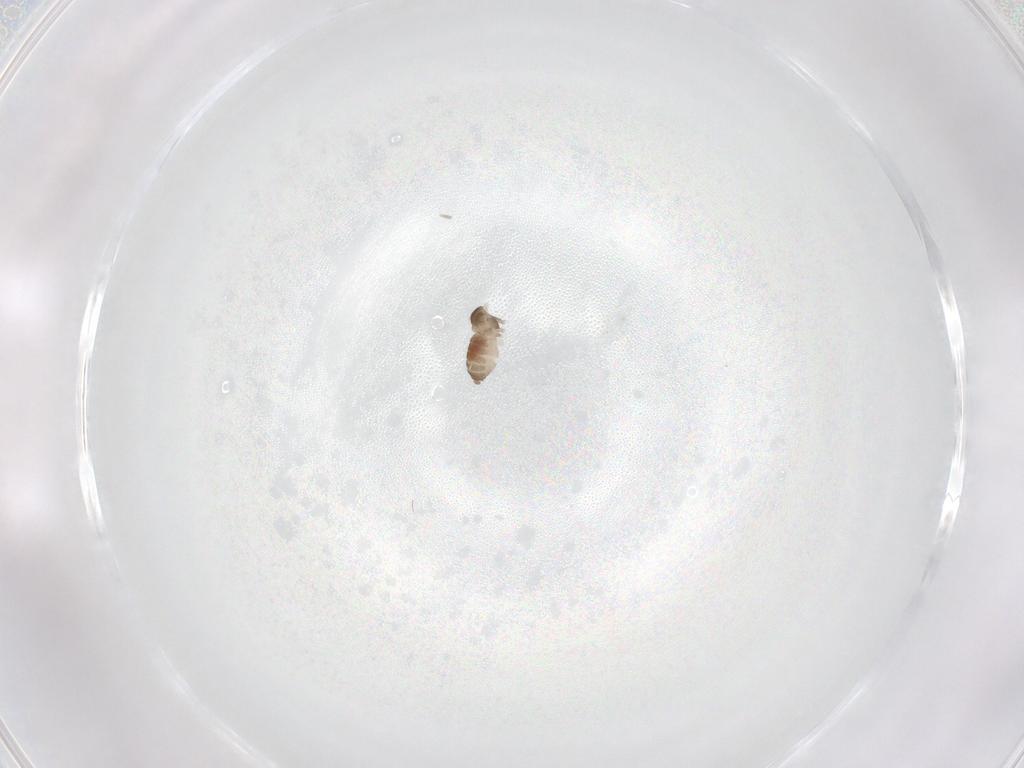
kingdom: Animalia
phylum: Arthropoda
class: Insecta
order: Diptera
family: Cecidomyiidae
